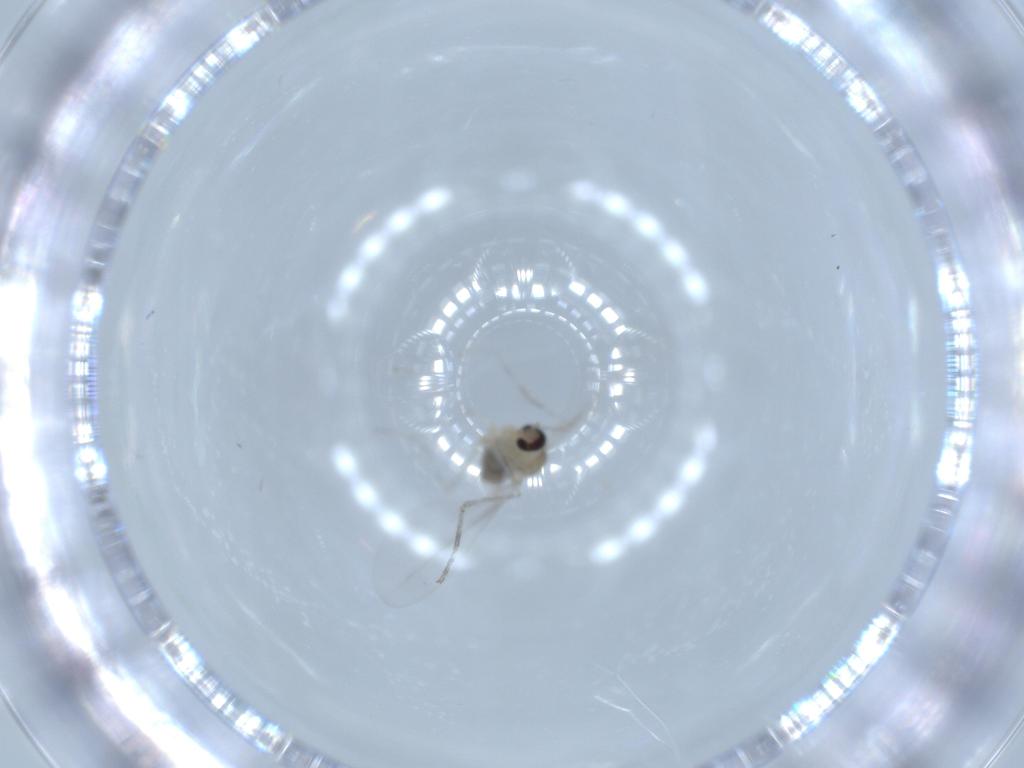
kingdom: Animalia
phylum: Arthropoda
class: Insecta
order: Diptera
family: Cecidomyiidae
